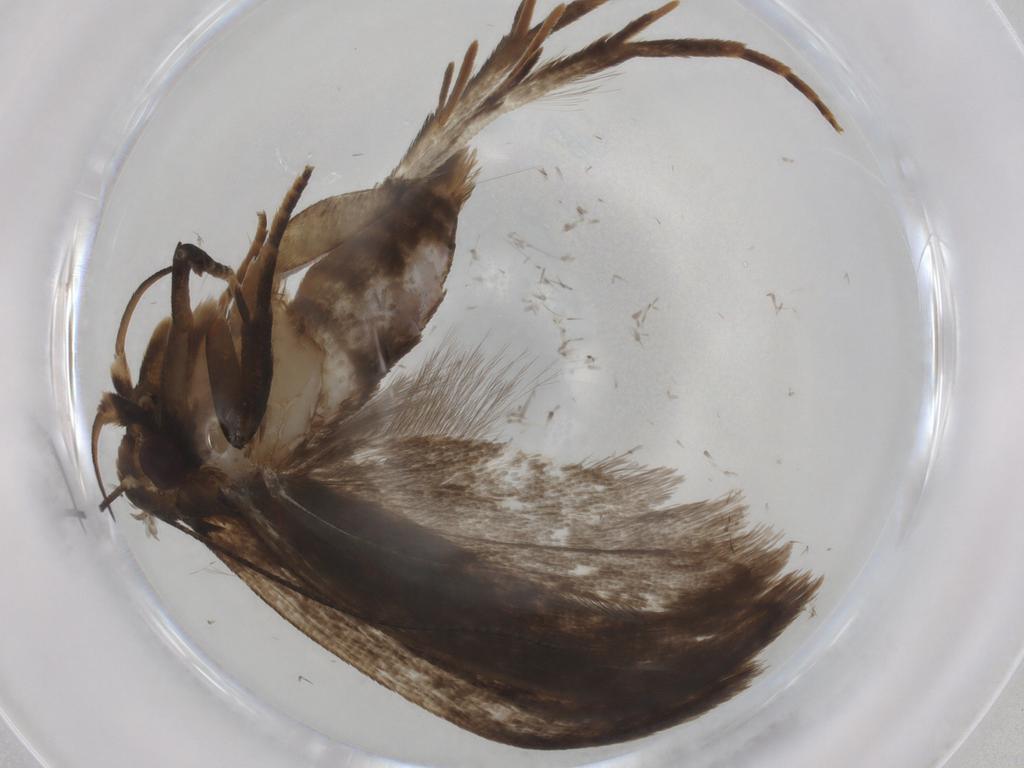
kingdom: Animalia
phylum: Arthropoda
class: Insecta
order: Lepidoptera
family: Gelechiidae
